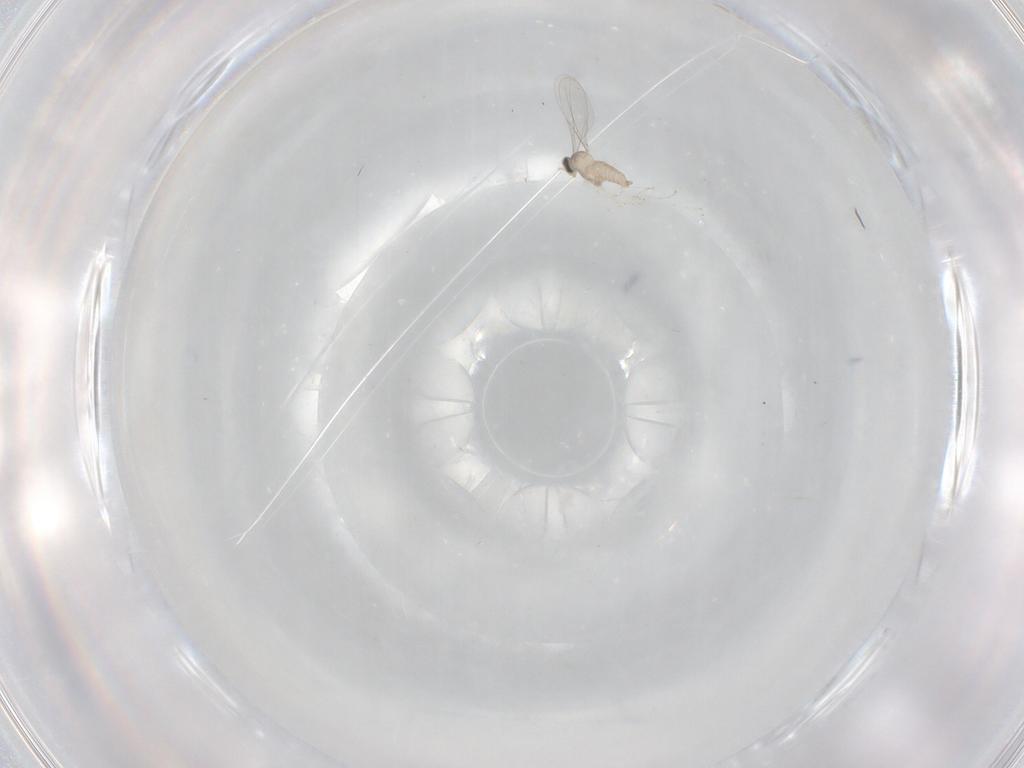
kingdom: Animalia
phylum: Arthropoda
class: Insecta
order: Diptera
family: Cecidomyiidae
